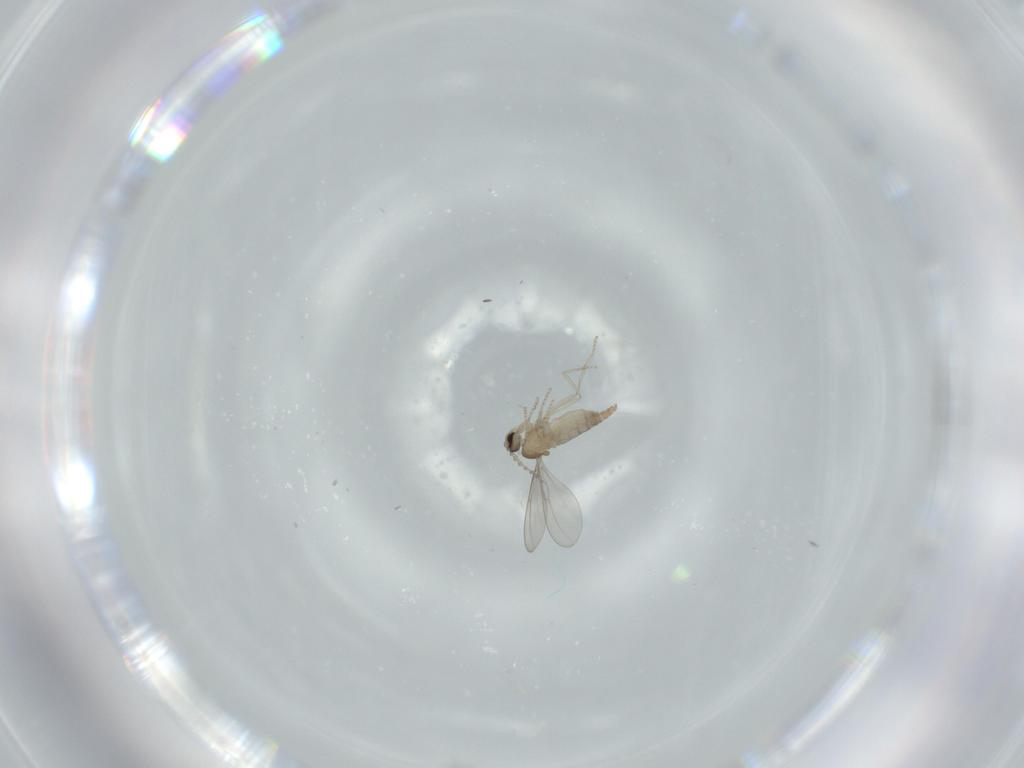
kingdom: Animalia
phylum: Arthropoda
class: Insecta
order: Diptera
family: Cecidomyiidae
